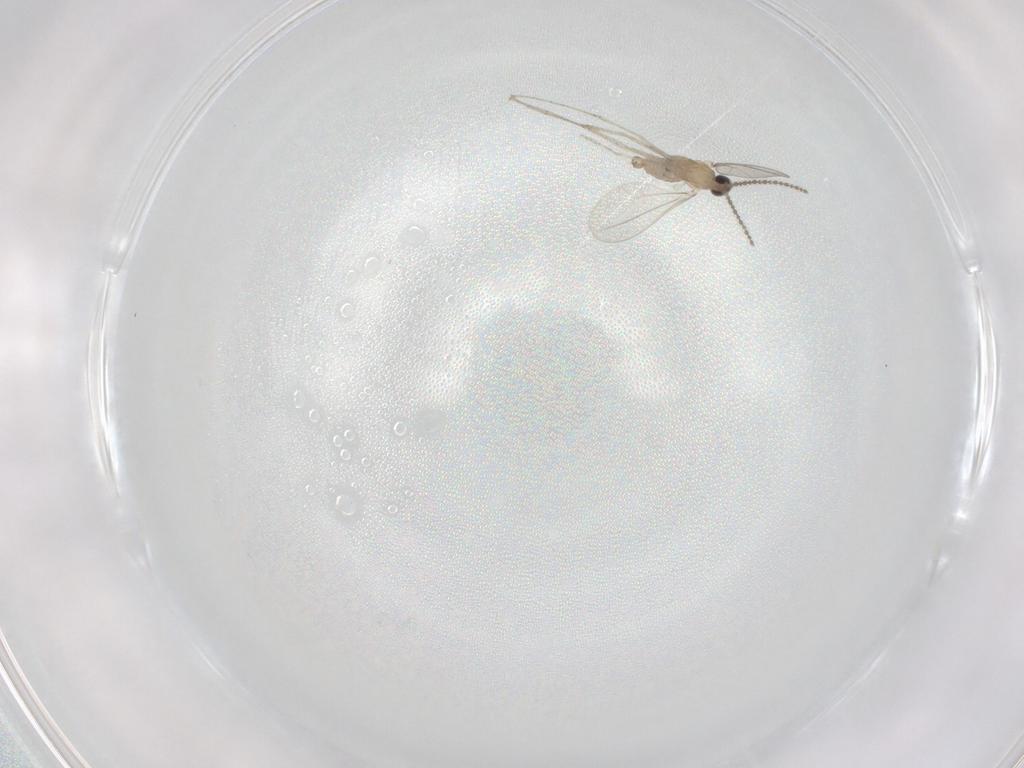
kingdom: Animalia
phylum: Arthropoda
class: Insecta
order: Diptera
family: Cecidomyiidae
